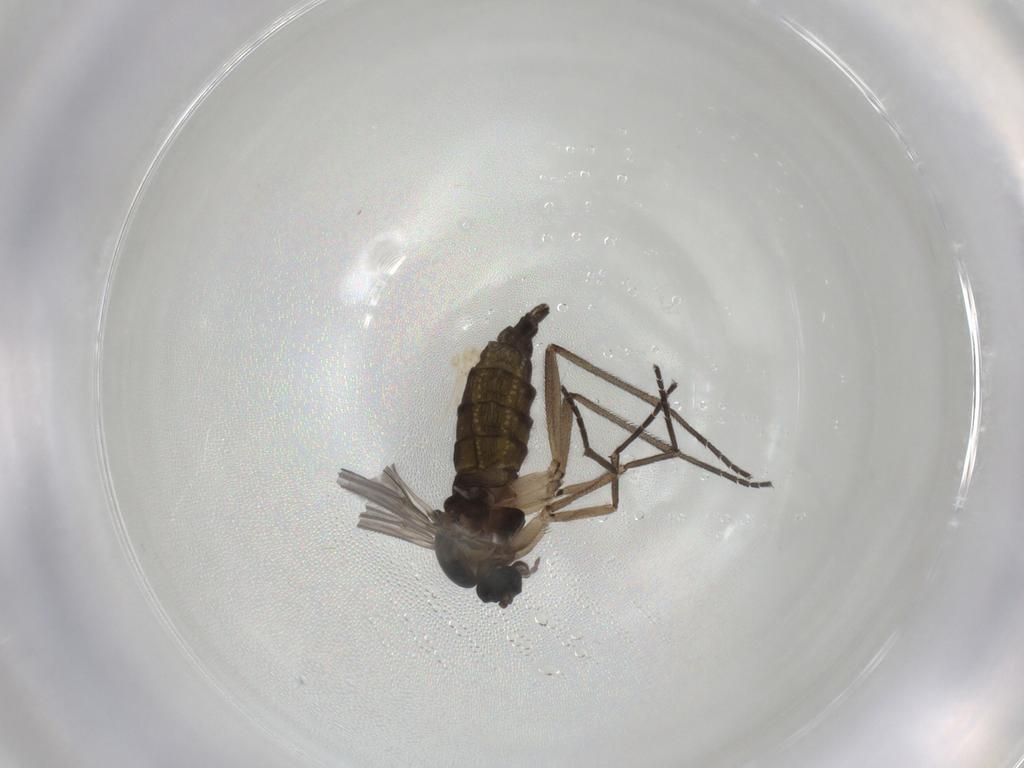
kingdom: Animalia
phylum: Arthropoda
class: Insecta
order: Diptera
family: Sciaridae
